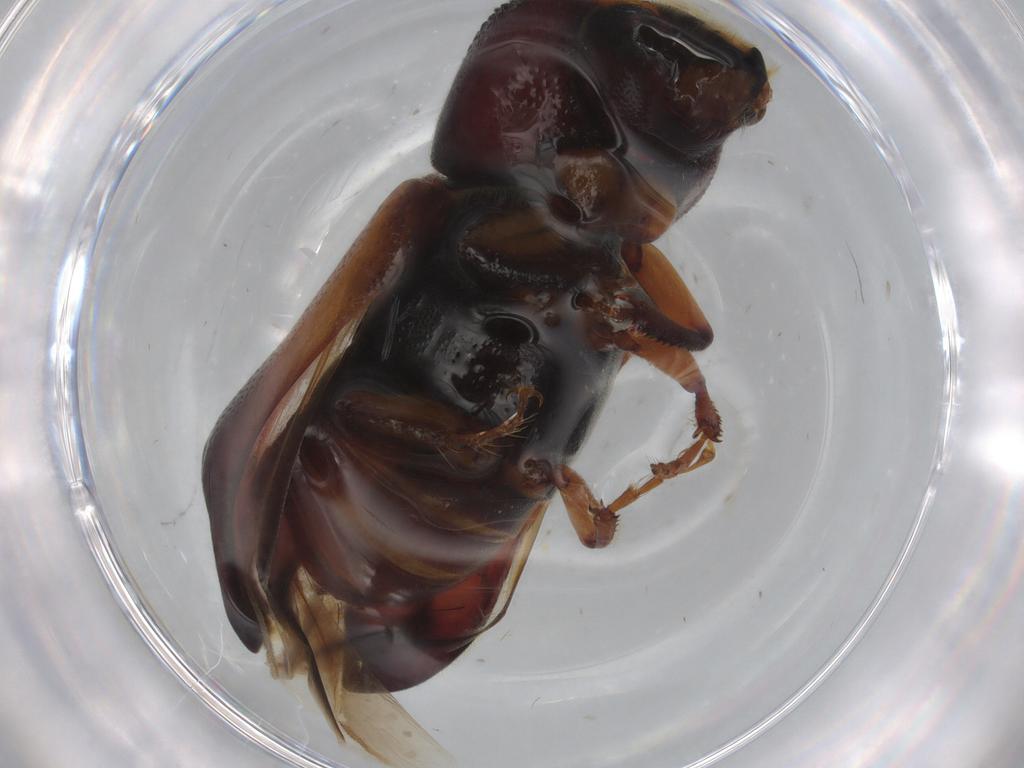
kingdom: Animalia
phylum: Arthropoda
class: Insecta
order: Coleoptera
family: Bostrichidae
